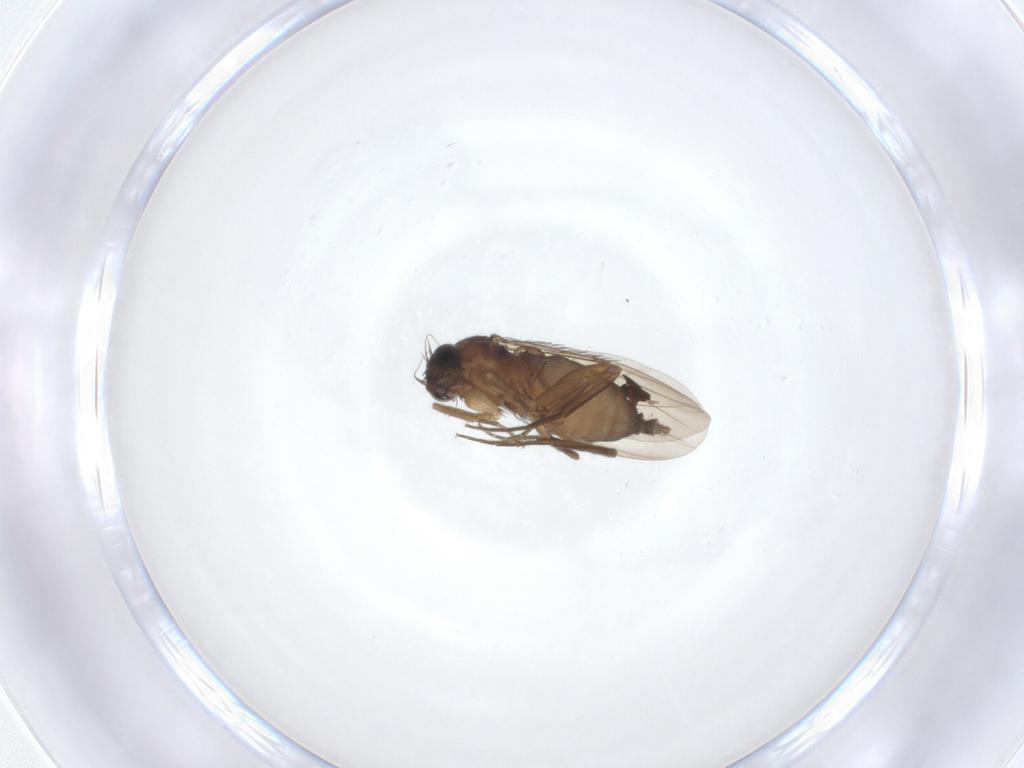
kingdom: Animalia
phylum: Arthropoda
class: Insecta
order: Diptera
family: Phoridae
